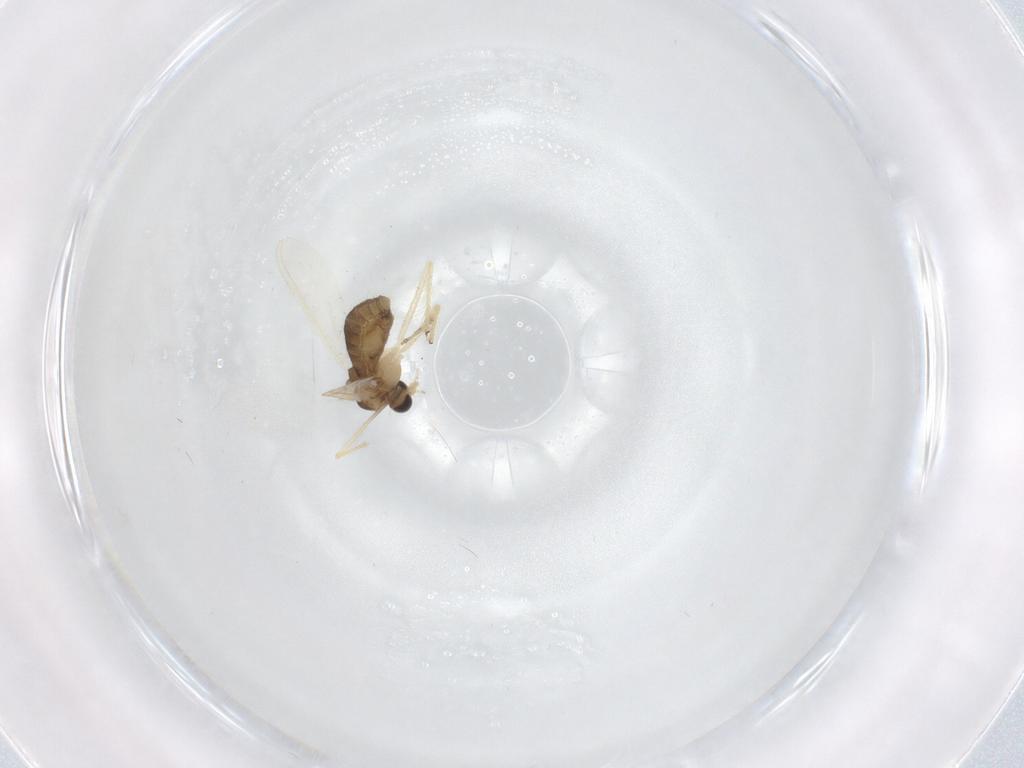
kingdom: Animalia
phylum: Arthropoda
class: Insecta
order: Diptera
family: Chironomidae
